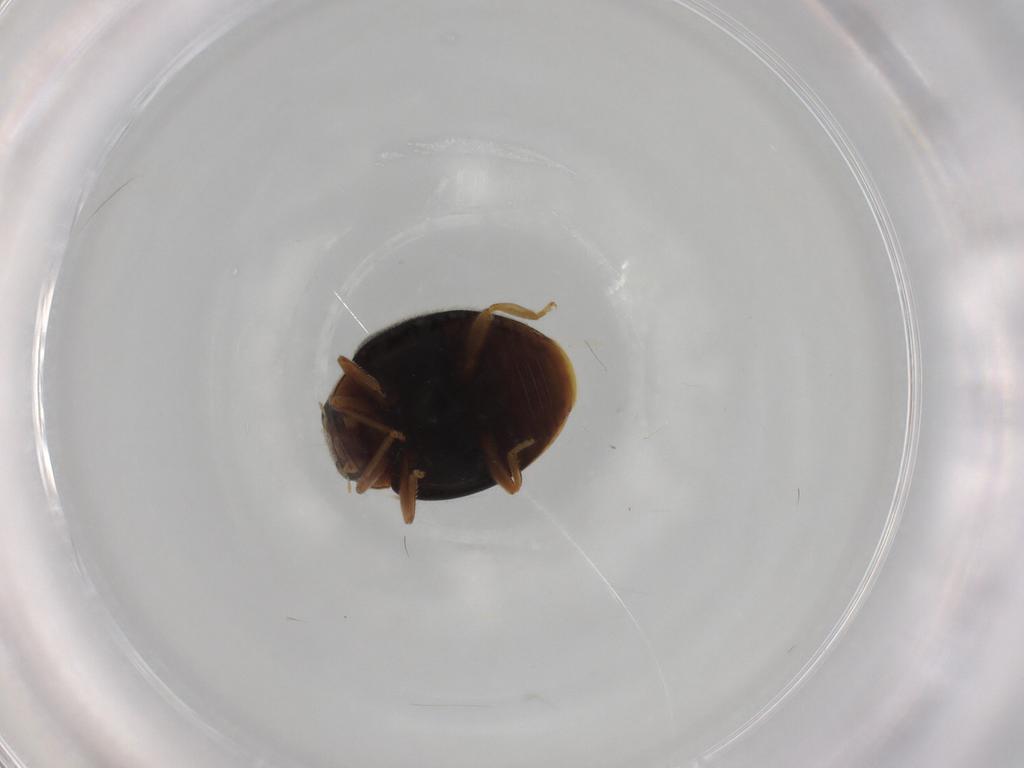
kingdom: Animalia
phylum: Arthropoda
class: Insecta
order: Coleoptera
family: Coccinellidae
